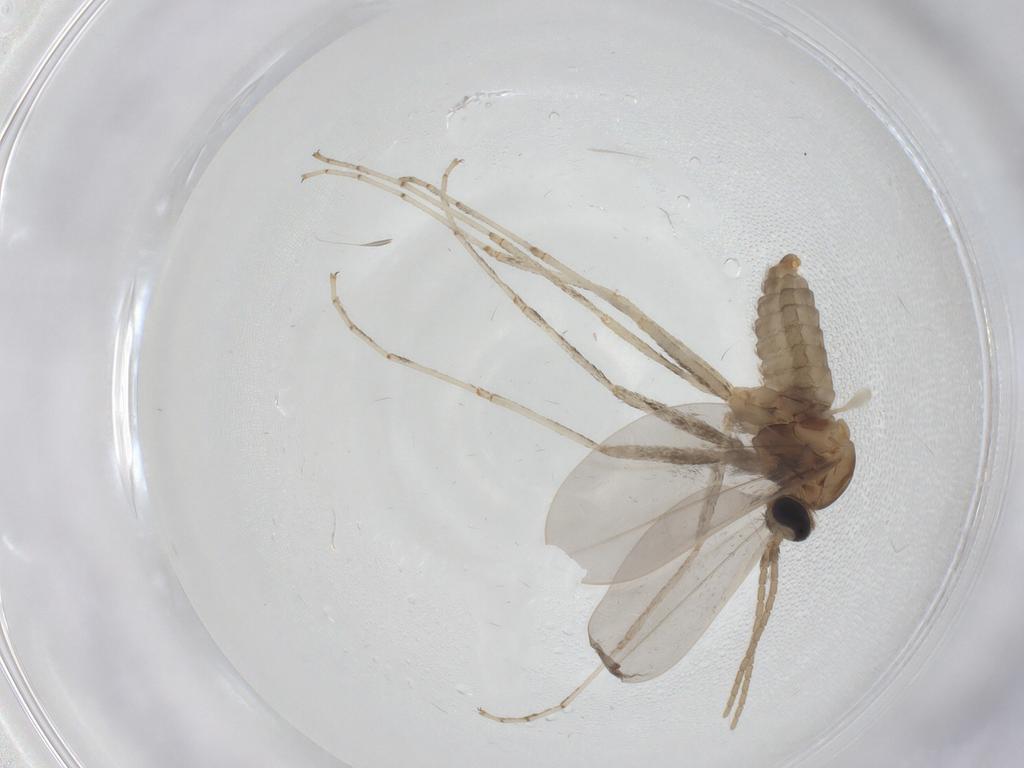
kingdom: Animalia
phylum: Arthropoda
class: Insecta
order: Diptera
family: Cecidomyiidae
